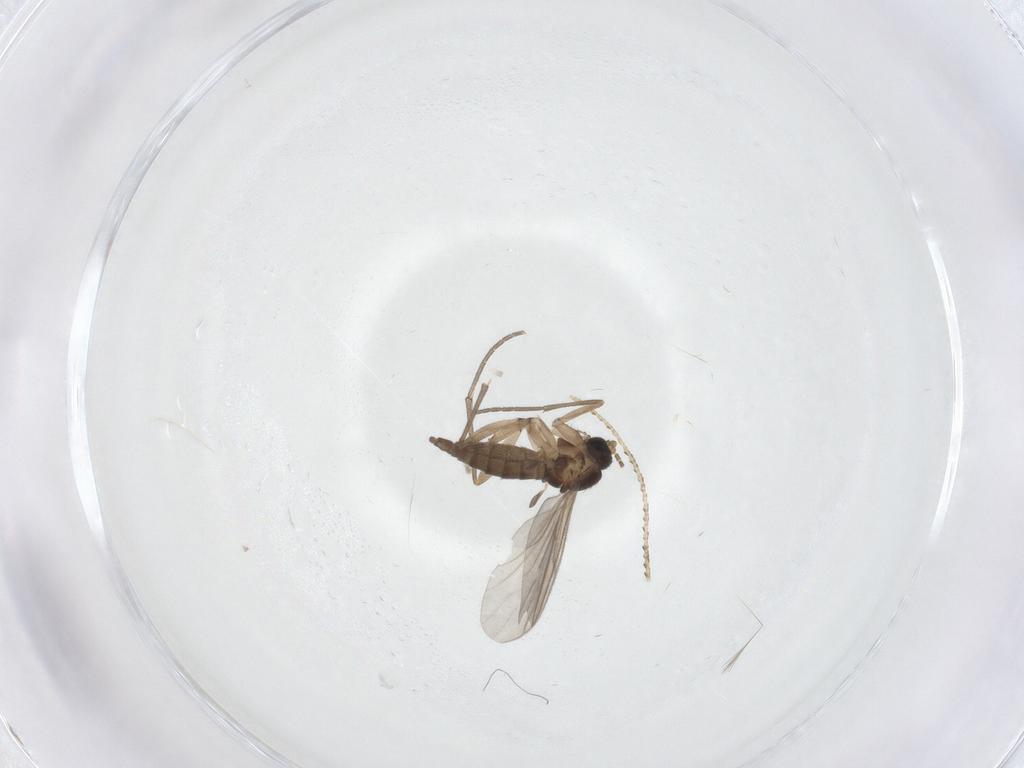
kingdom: Animalia
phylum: Arthropoda
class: Insecta
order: Diptera
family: Sciaridae
